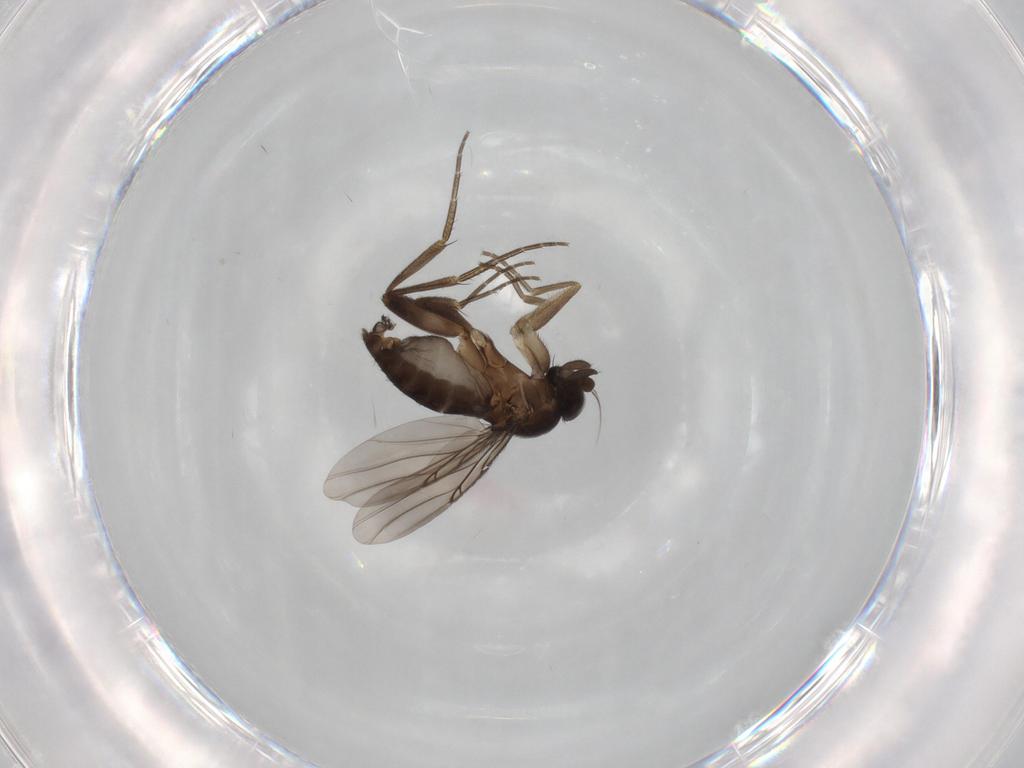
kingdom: Animalia
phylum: Arthropoda
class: Insecta
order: Diptera
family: Phoridae
